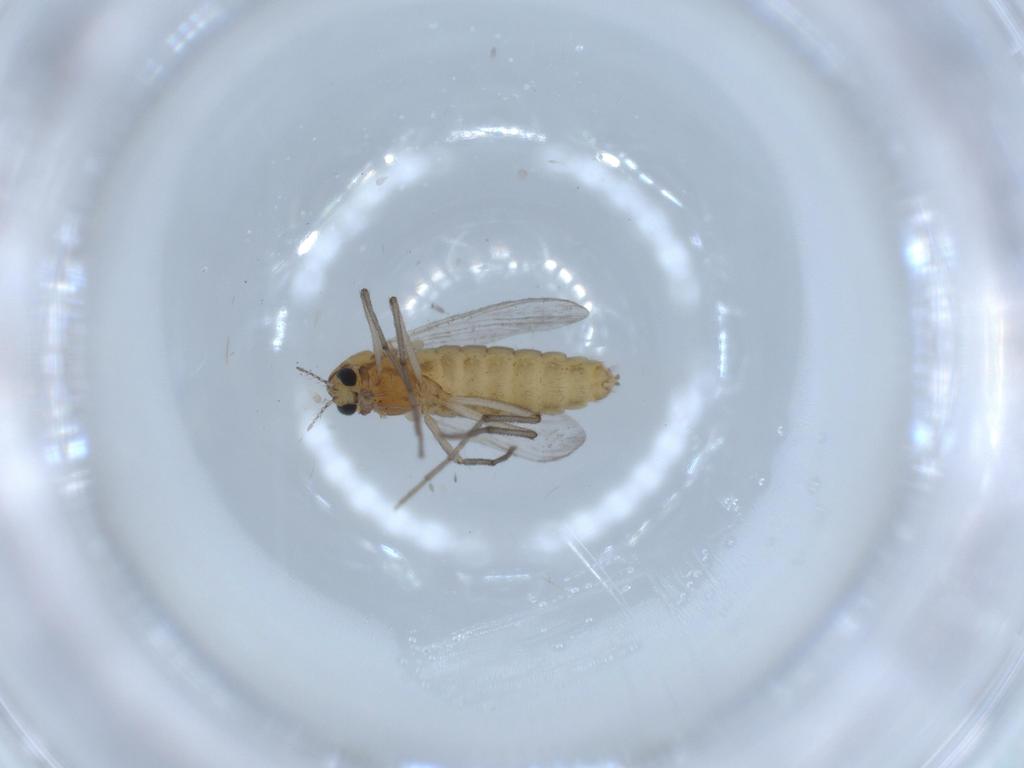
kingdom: Animalia
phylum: Arthropoda
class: Insecta
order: Diptera
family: Chironomidae
